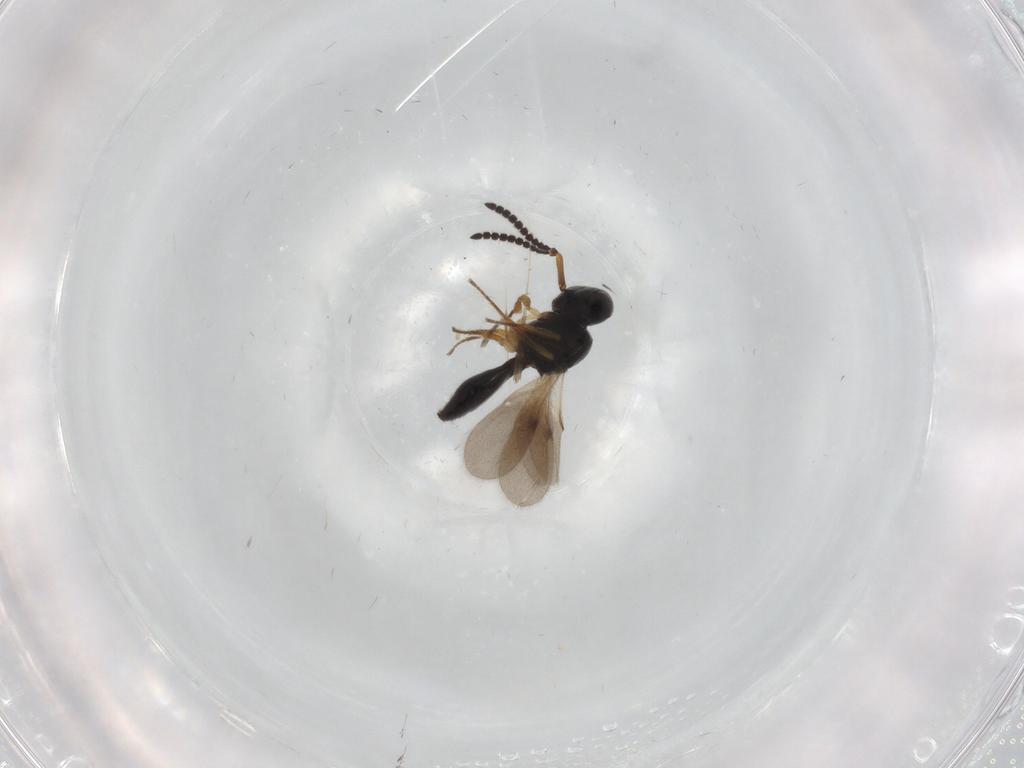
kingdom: Animalia
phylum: Arthropoda
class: Insecta
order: Hymenoptera
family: Scelionidae
